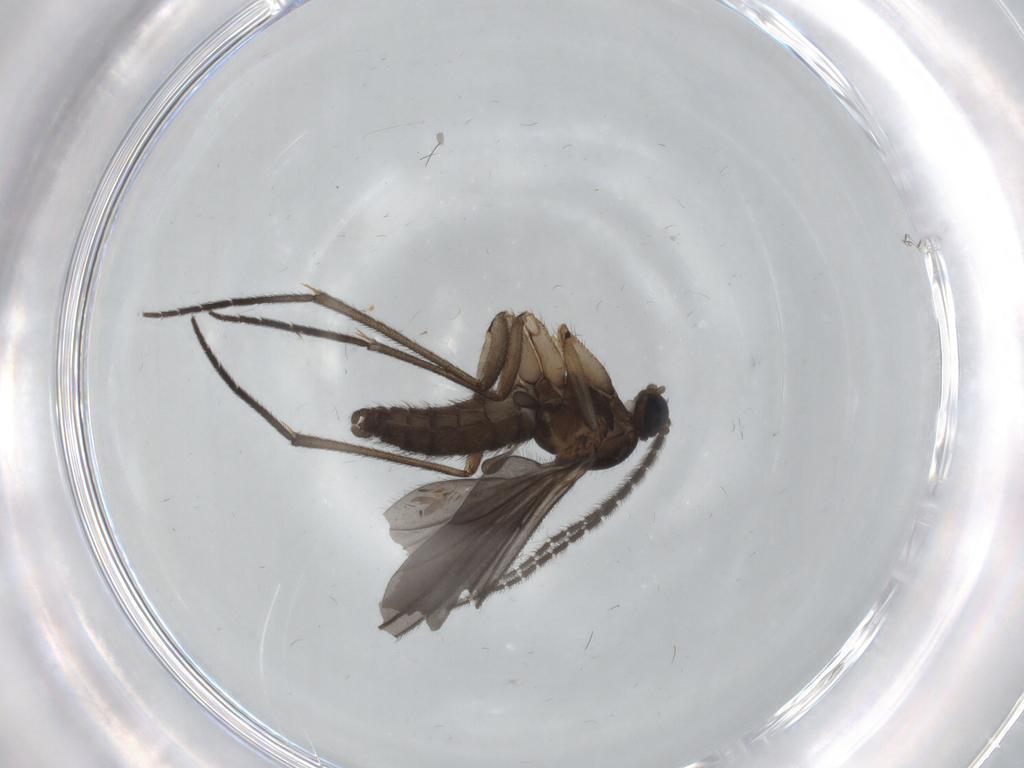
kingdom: Animalia
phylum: Arthropoda
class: Insecta
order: Diptera
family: Sciaridae
